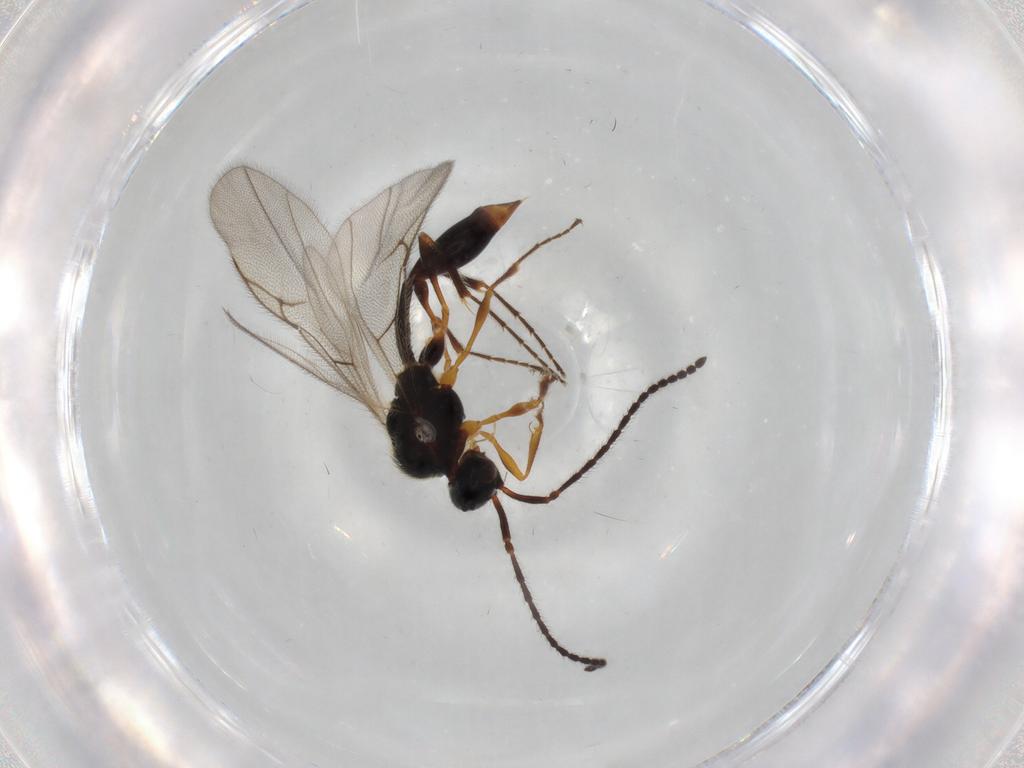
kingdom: Animalia
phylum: Arthropoda
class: Insecta
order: Hymenoptera
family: Diapriidae
